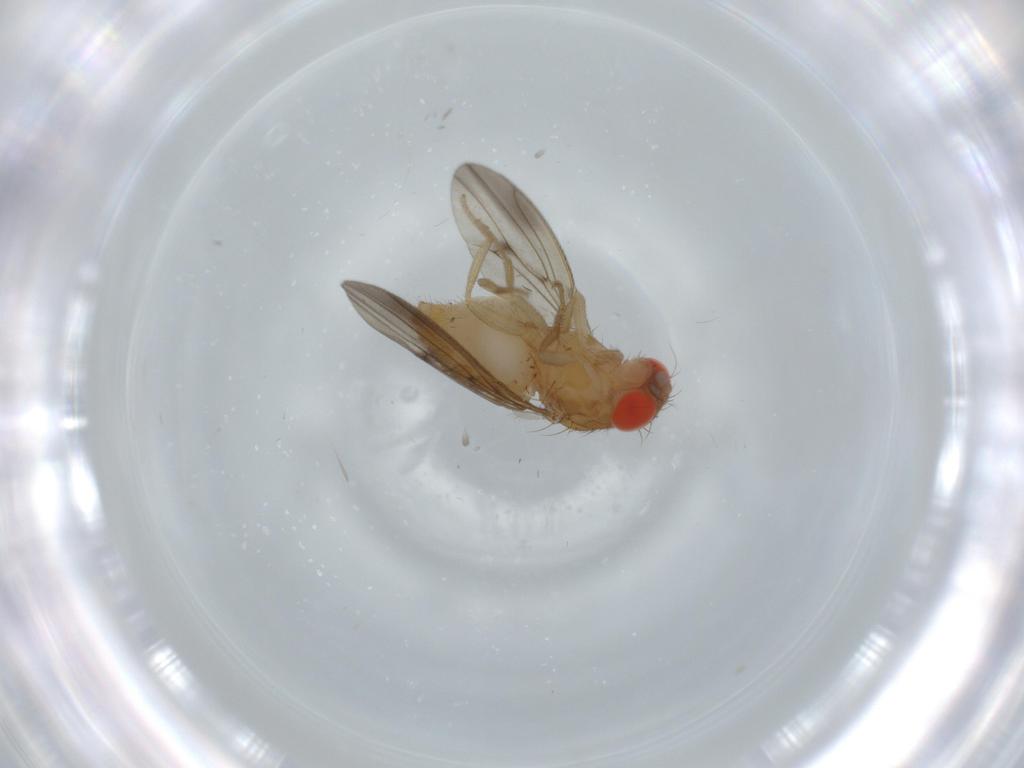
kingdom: Animalia
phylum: Arthropoda
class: Insecta
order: Diptera
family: Drosophilidae
